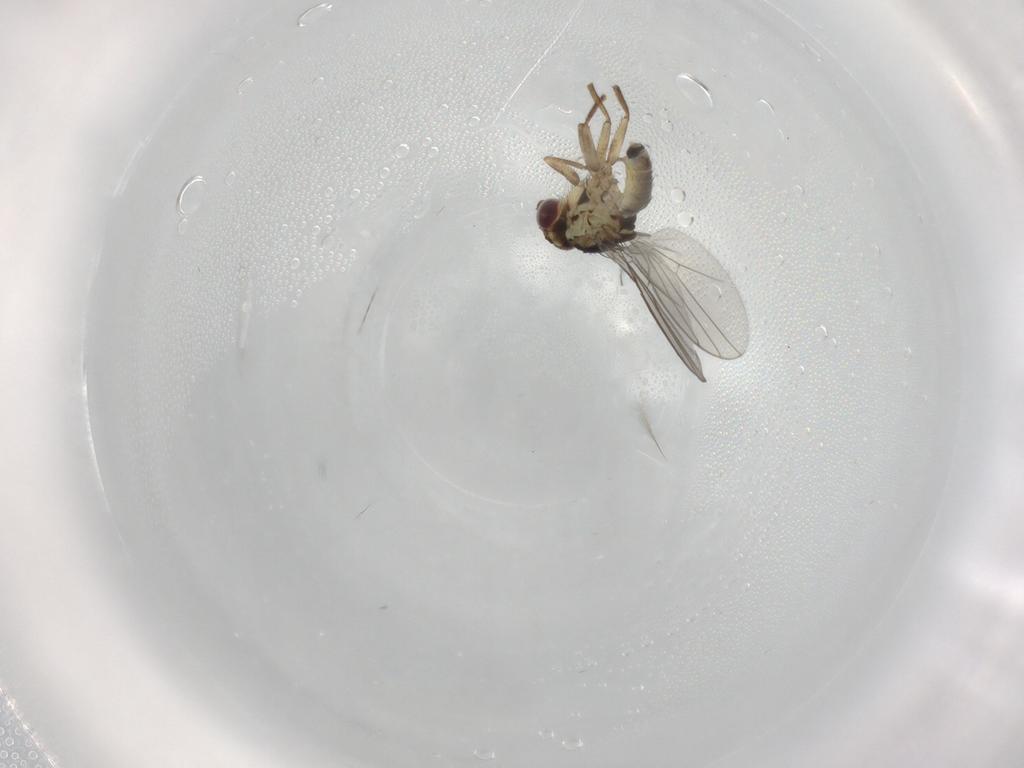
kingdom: Animalia
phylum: Arthropoda
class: Insecta
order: Diptera
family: Agromyzidae
